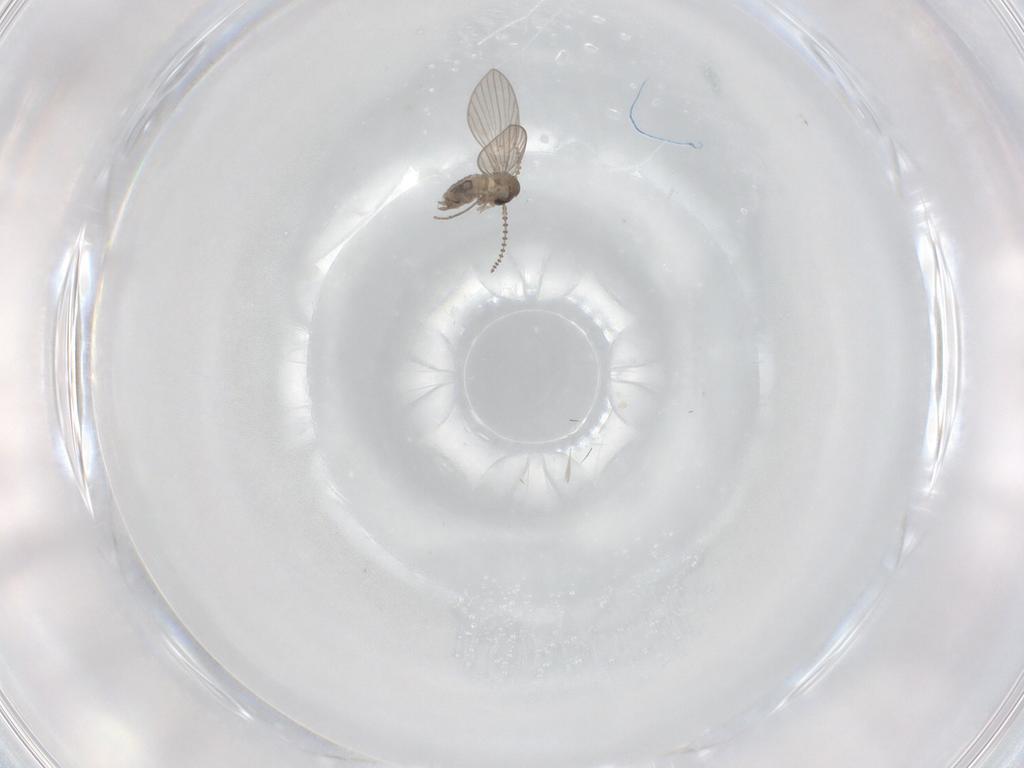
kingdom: Animalia
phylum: Arthropoda
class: Insecta
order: Diptera
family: Psychodidae
